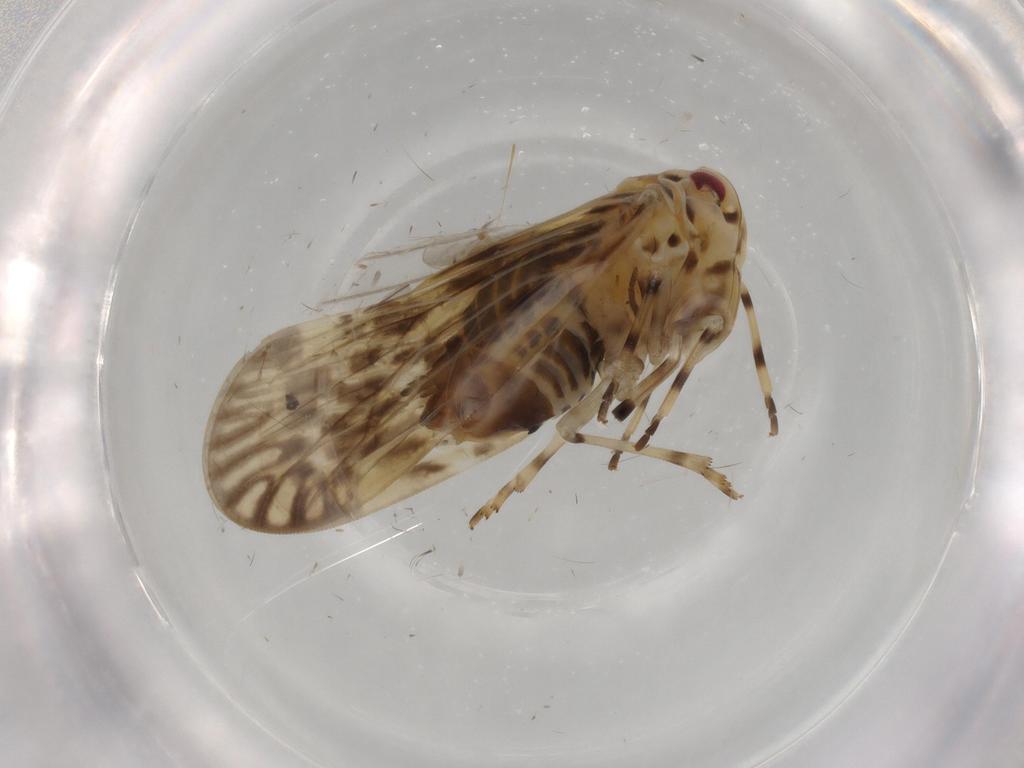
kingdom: Animalia
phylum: Arthropoda
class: Insecta
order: Hemiptera
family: Derbidae
